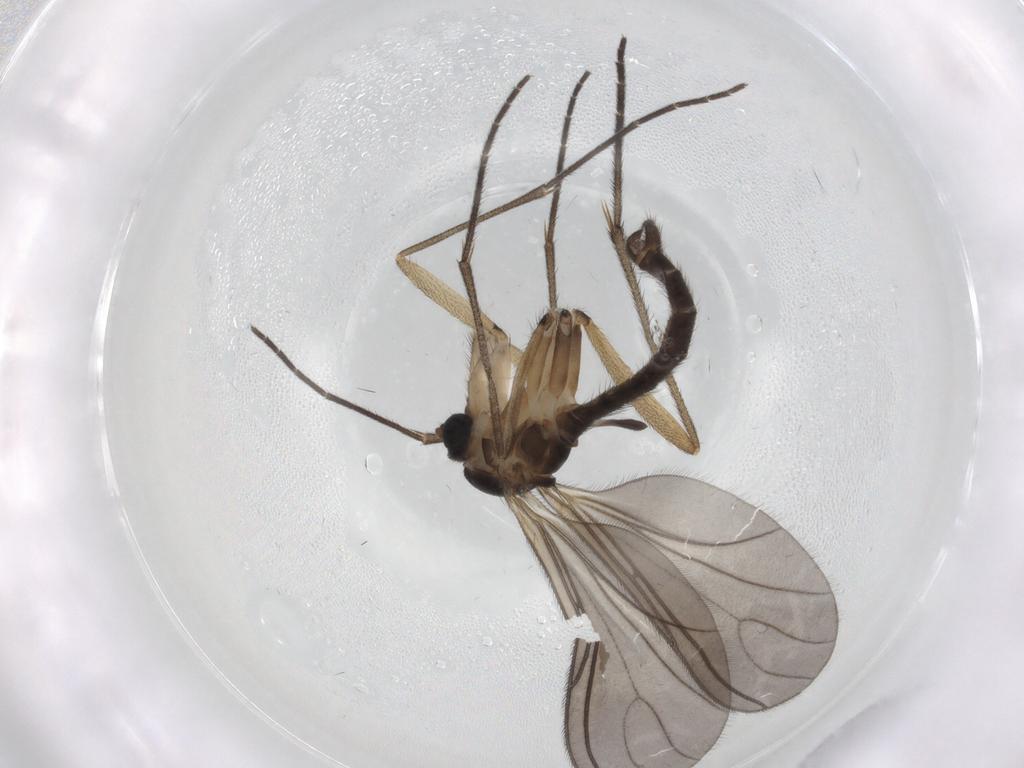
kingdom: Animalia
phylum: Arthropoda
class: Insecta
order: Diptera
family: Sciaridae
